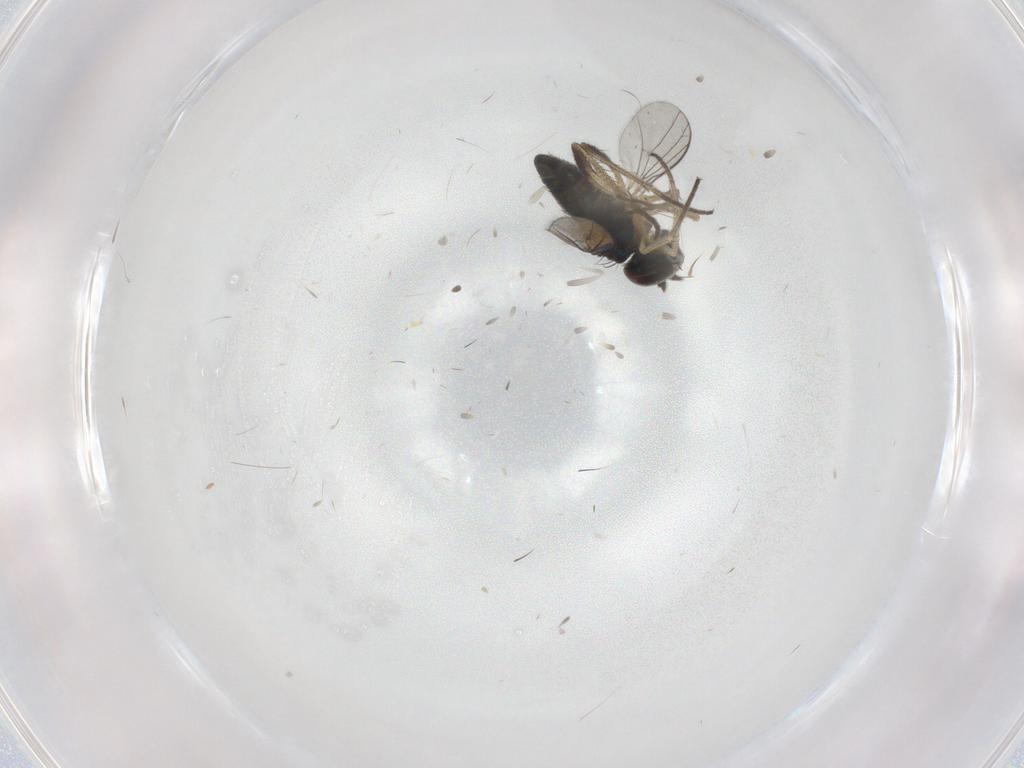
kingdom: Animalia
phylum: Arthropoda
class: Insecta
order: Diptera
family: Dolichopodidae
